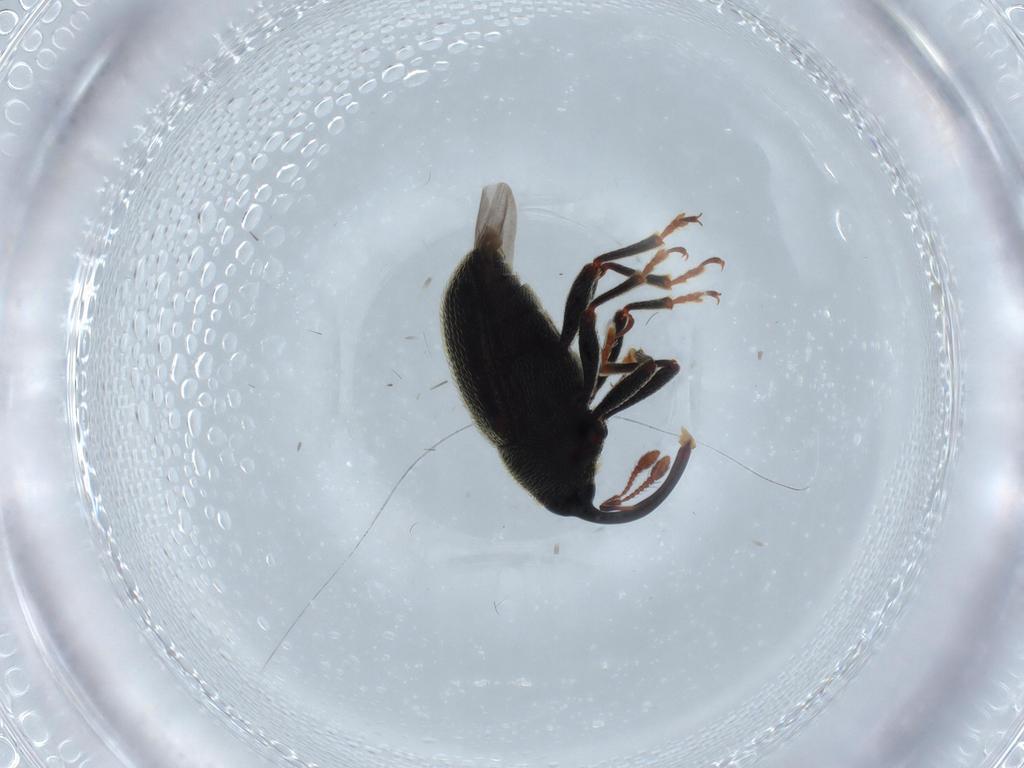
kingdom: Animalia
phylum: Arthropoda
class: Insecta
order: Coleoptera
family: Curculionidae
